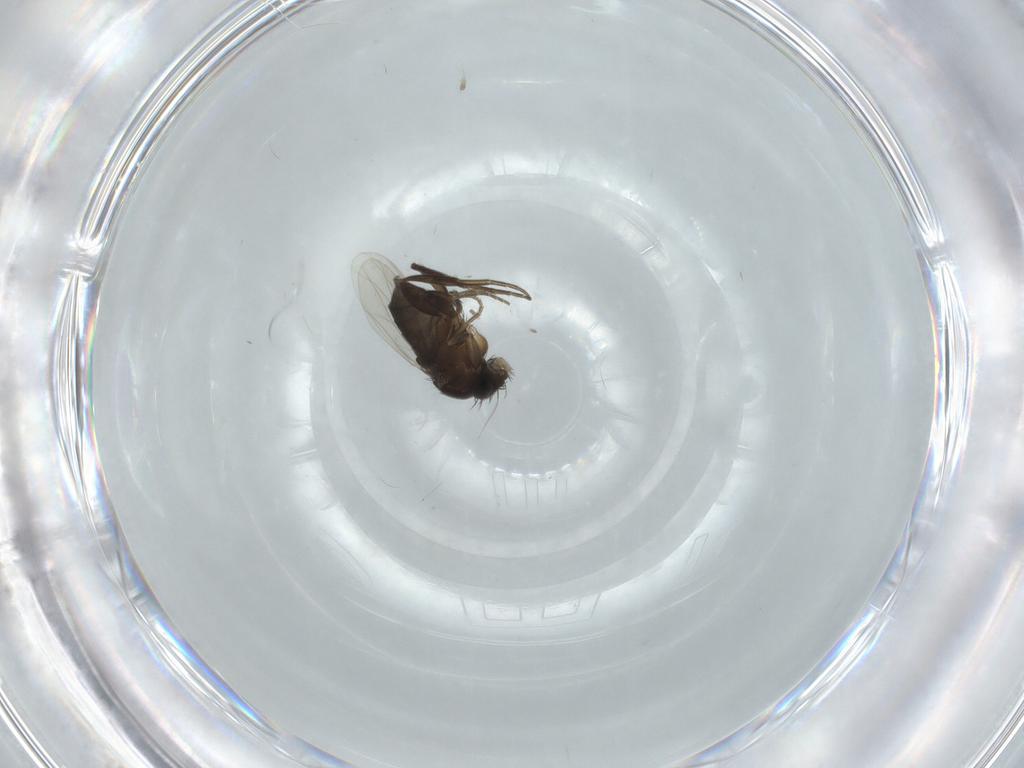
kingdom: Animalia
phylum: Arthropoda
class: Insecta
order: Diptera
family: Phoridae
